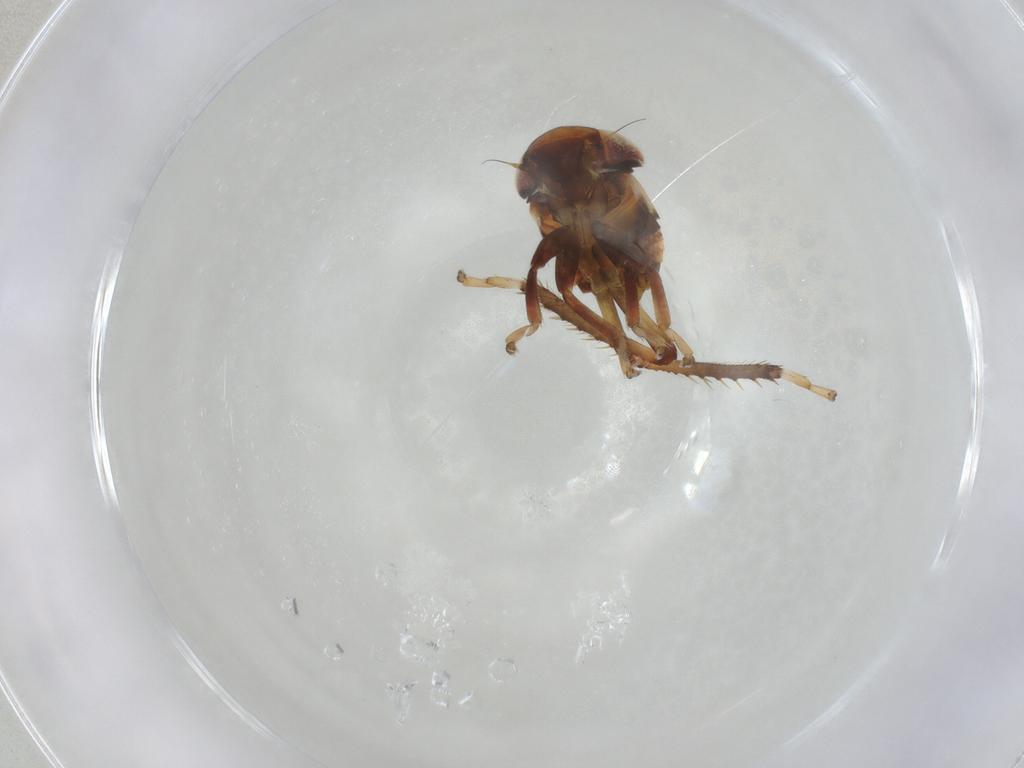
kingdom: Animalia
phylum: Arthropoda
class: Insecta
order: Hemiptera
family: Cicadellidae
